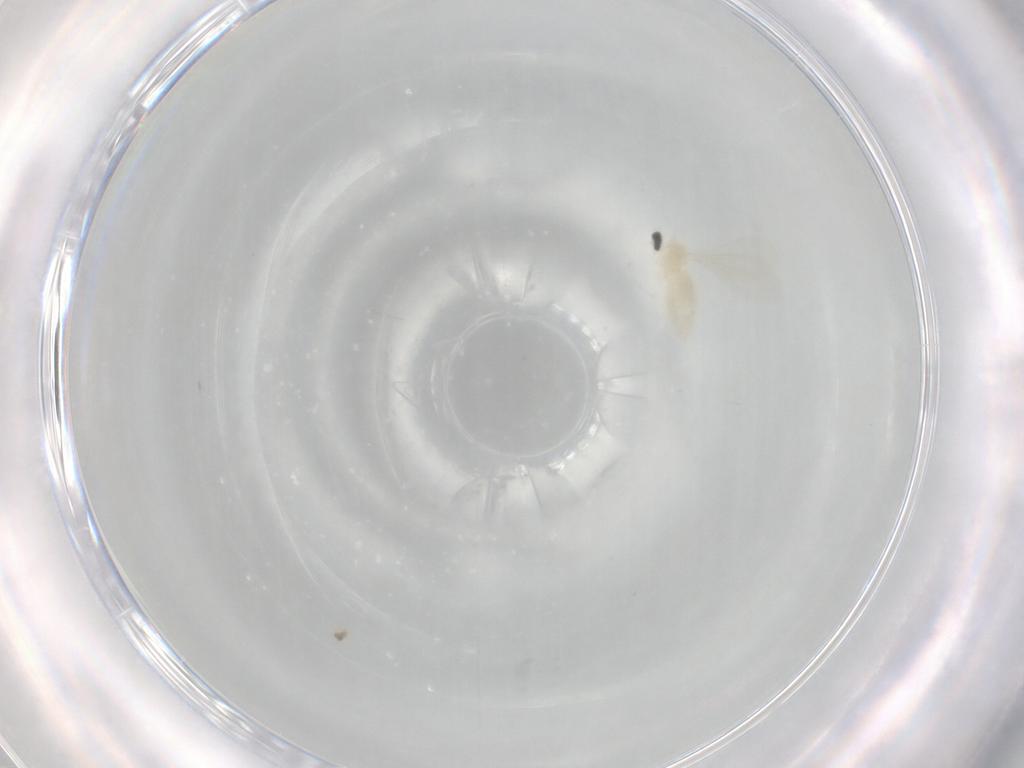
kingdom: Animalia
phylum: Arthropoda
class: Insecta
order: Diptera
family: Cecidomyiidae
